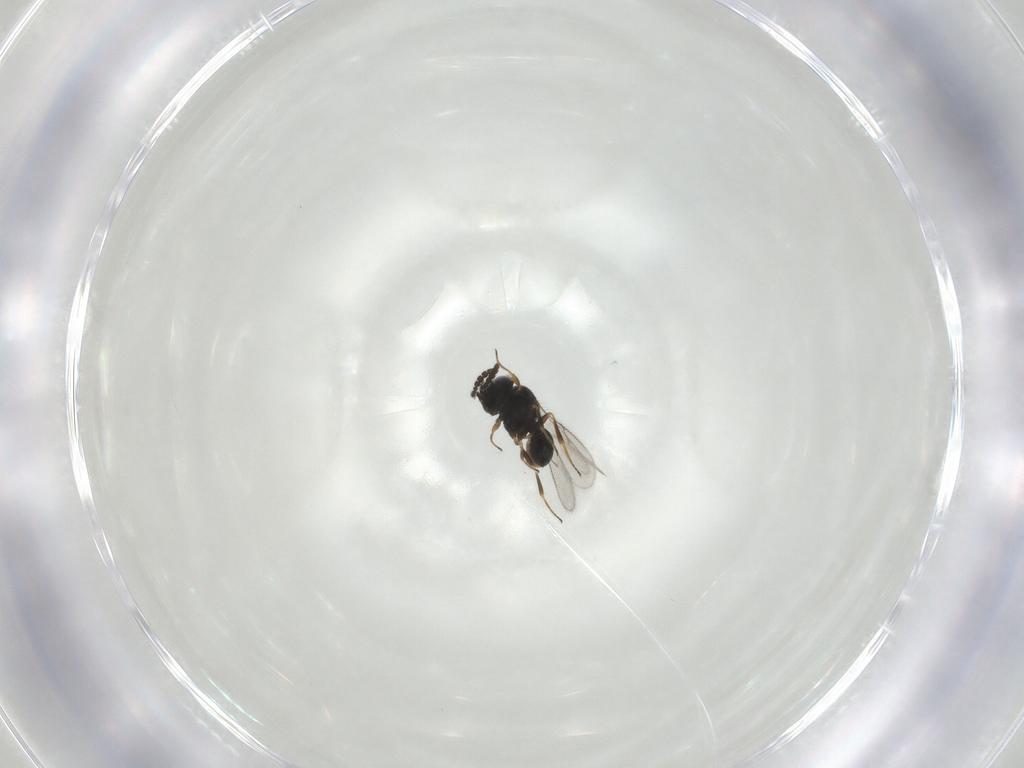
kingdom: Animalia
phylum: Arthropoda
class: Insecta
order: Hymenoptera
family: Scelionidae
